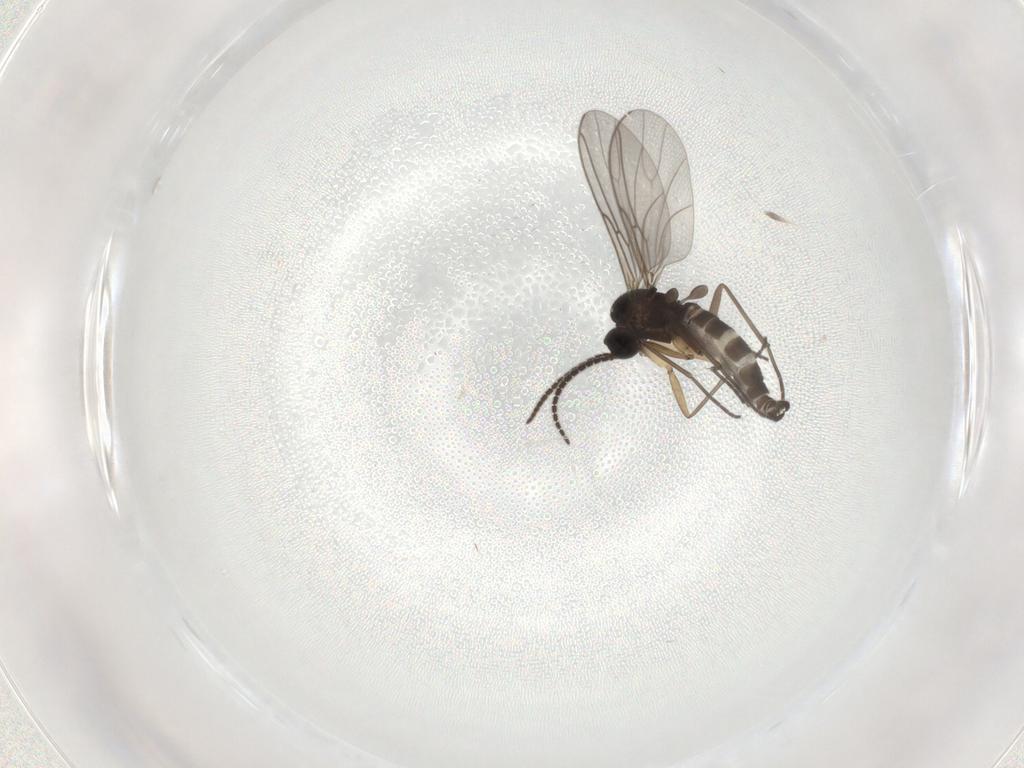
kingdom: Animalia
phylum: Arthropoda
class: Insecta
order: Diptera
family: Sciaridae
